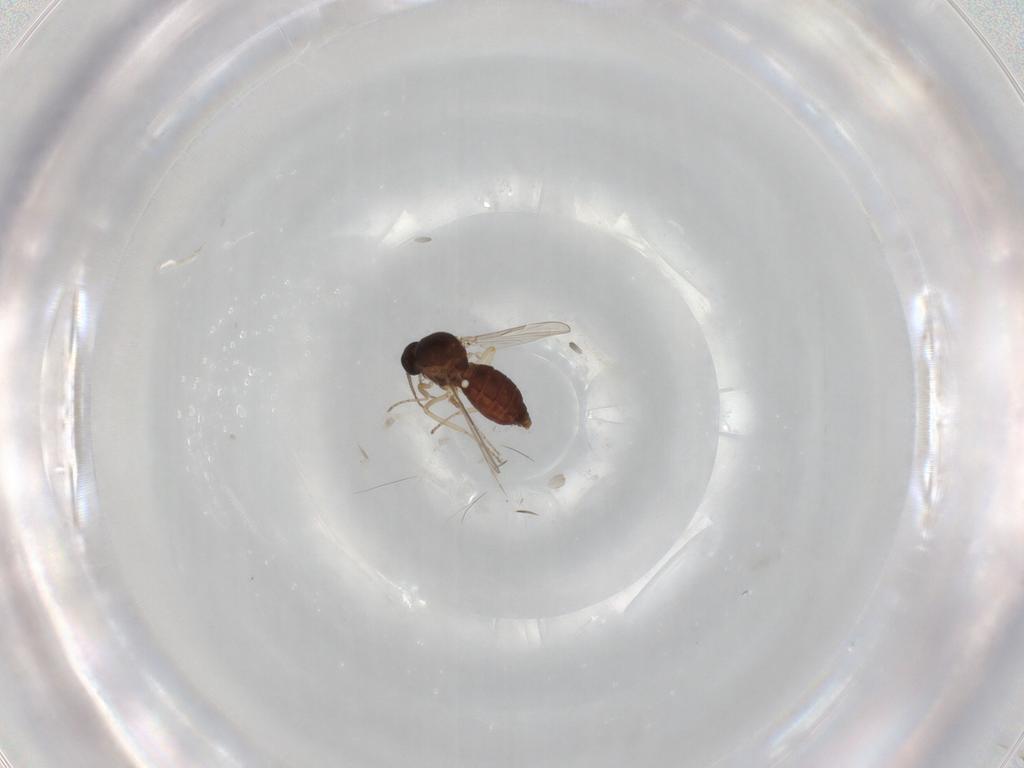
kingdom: Animalia
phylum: Arthropoda
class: Insecta
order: Diptera
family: Ceratopogonidae
